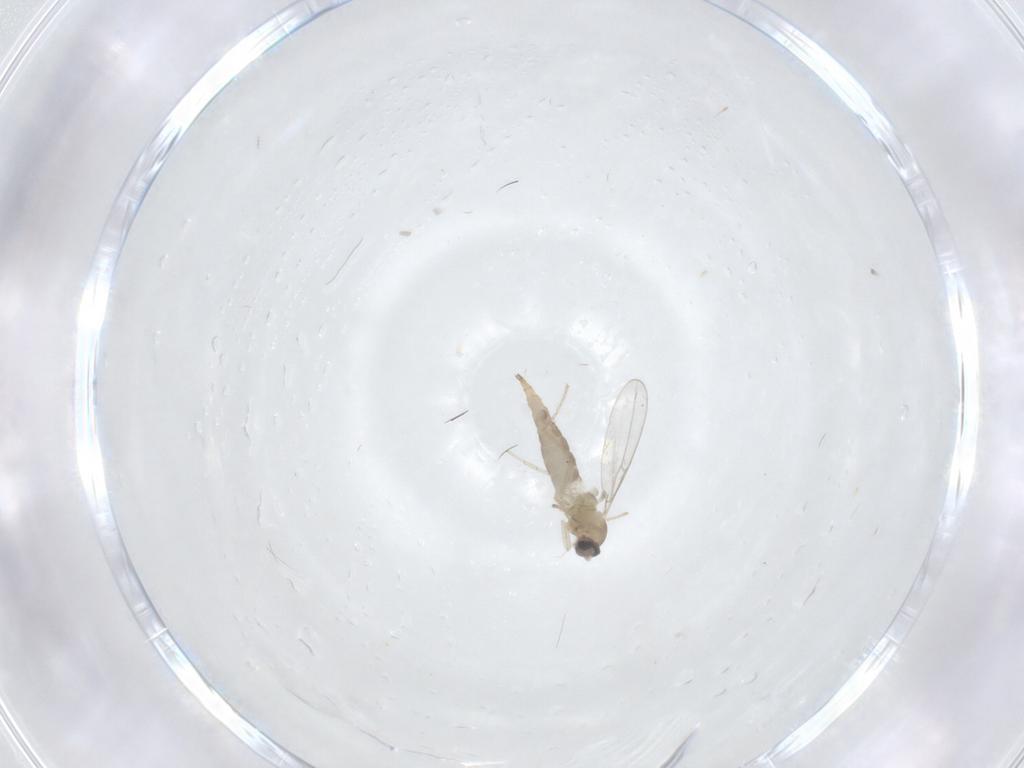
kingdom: Animalia
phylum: Arthropoda
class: Insecta
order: Diptera
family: Cecidomyiidae
